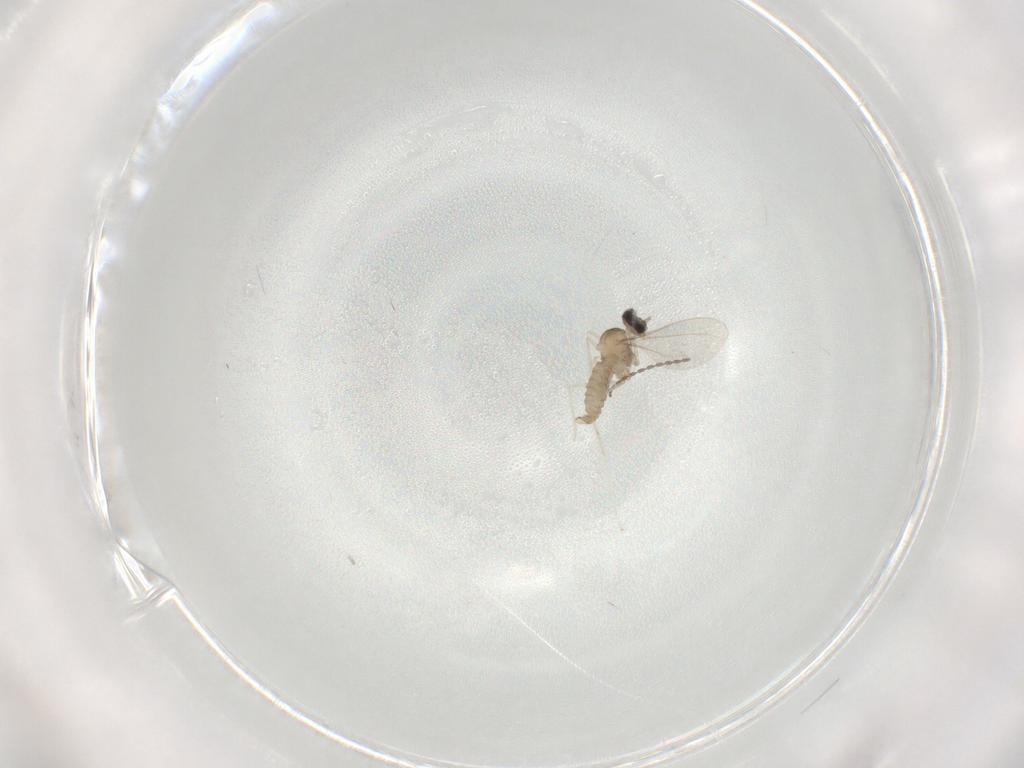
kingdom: Animalia
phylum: Arthropoda
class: Insecta
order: Diptera
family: Cecidomyiidae
